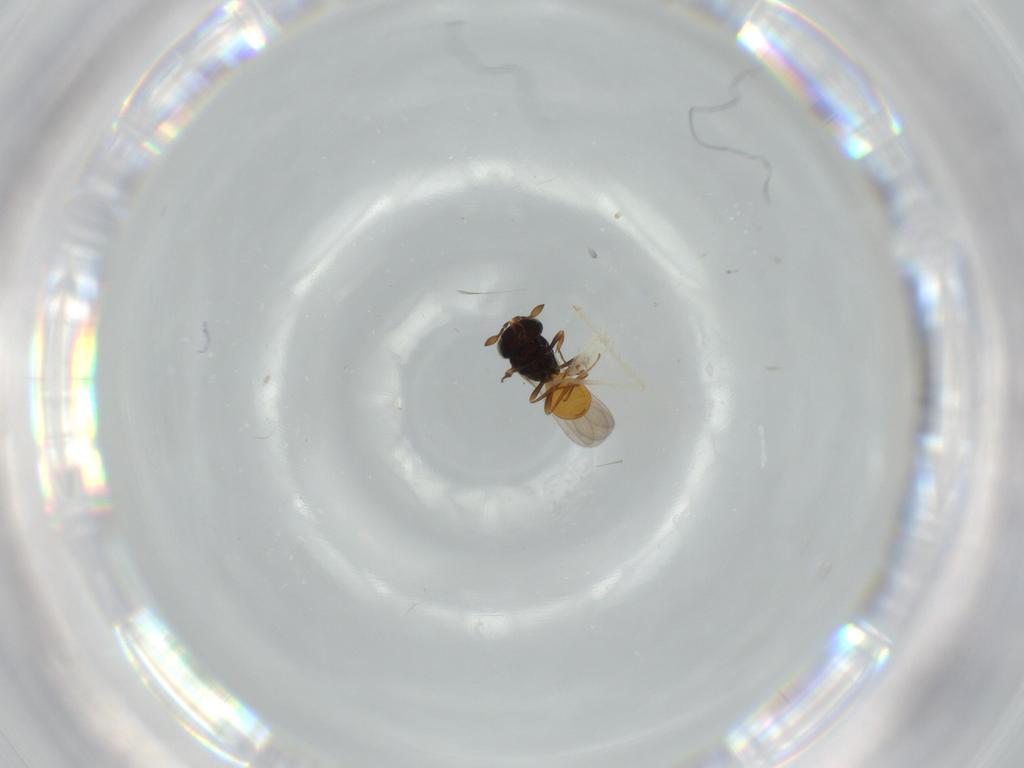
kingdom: Animalia
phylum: Arthropoda
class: Insecta
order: Hymenoptera
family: Scelionidae
